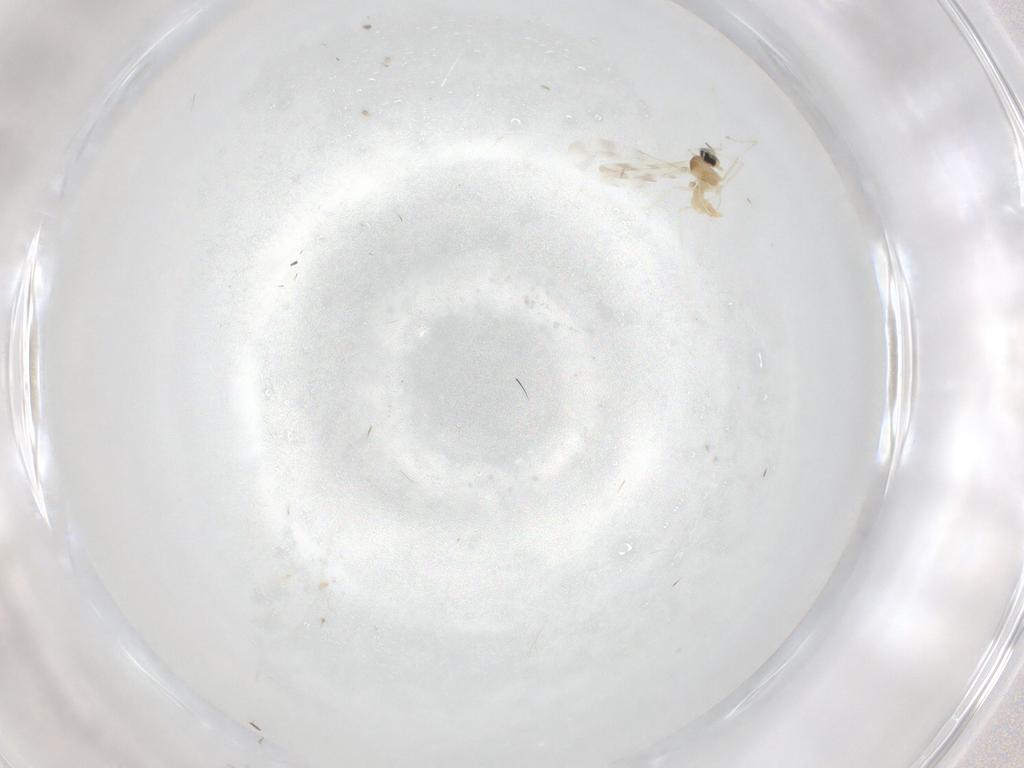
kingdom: Animalia
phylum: Arthropoda
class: Insecta
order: Diptera
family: Cecidomyiidae
